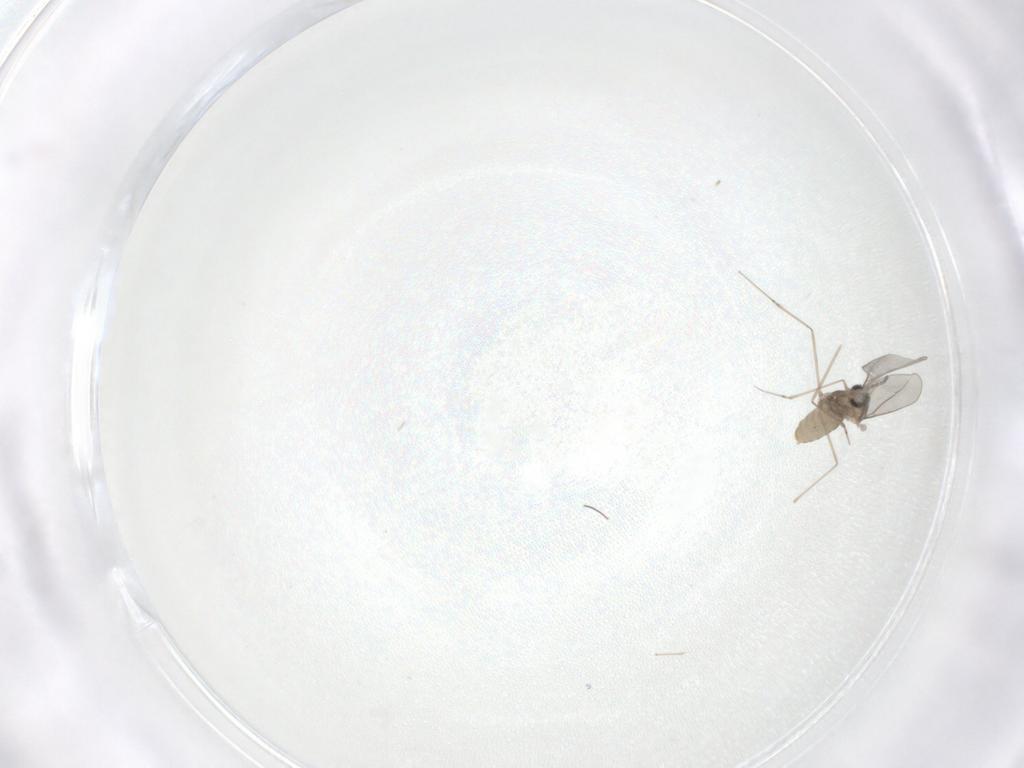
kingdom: Animalia
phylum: Arthropoda
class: Insecta
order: Diptera
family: Cecidomyiidae
